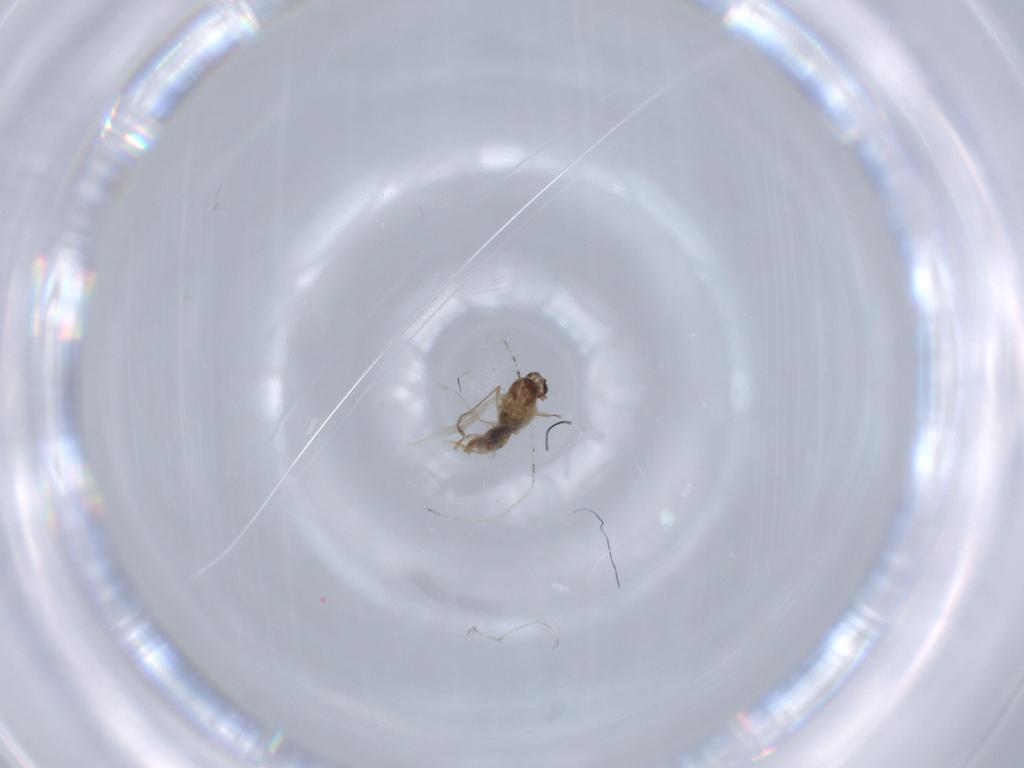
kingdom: Animalia
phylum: Arthropoda
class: Insecta
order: Diptera
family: Cecidomyiidae
